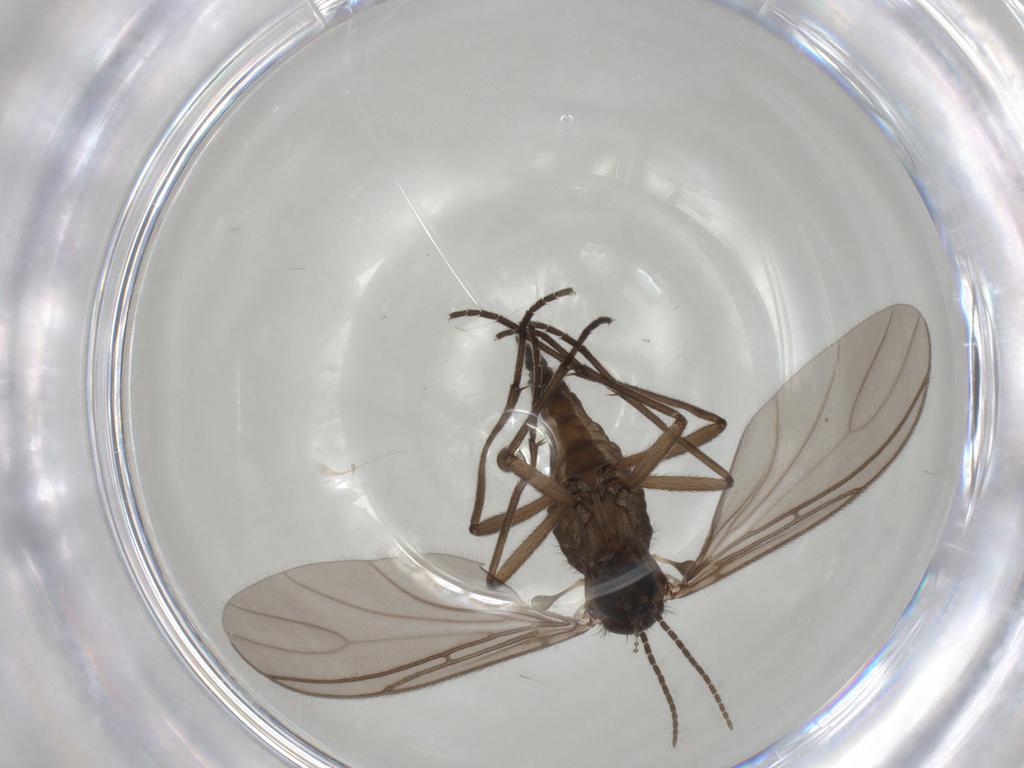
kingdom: Animalia
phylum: Arthropoda
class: Insecta
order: Diptera
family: Sciaridae
